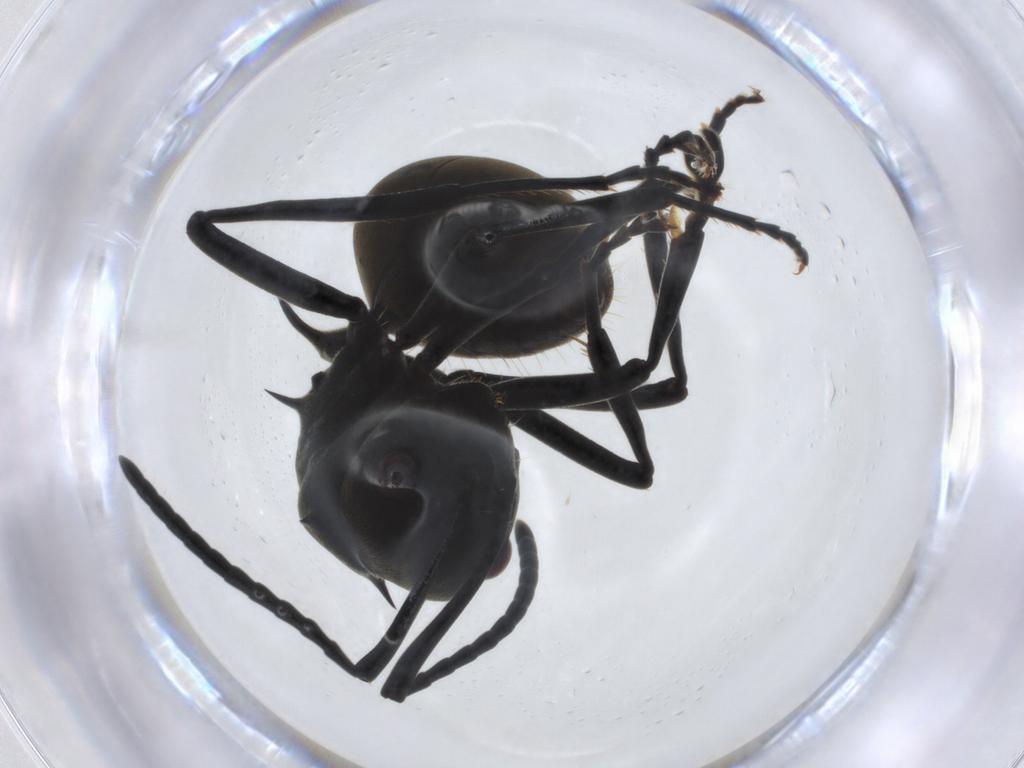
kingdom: Animalia
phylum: Arthropoda
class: Insecta
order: Hymenoptera
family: Formicidae
